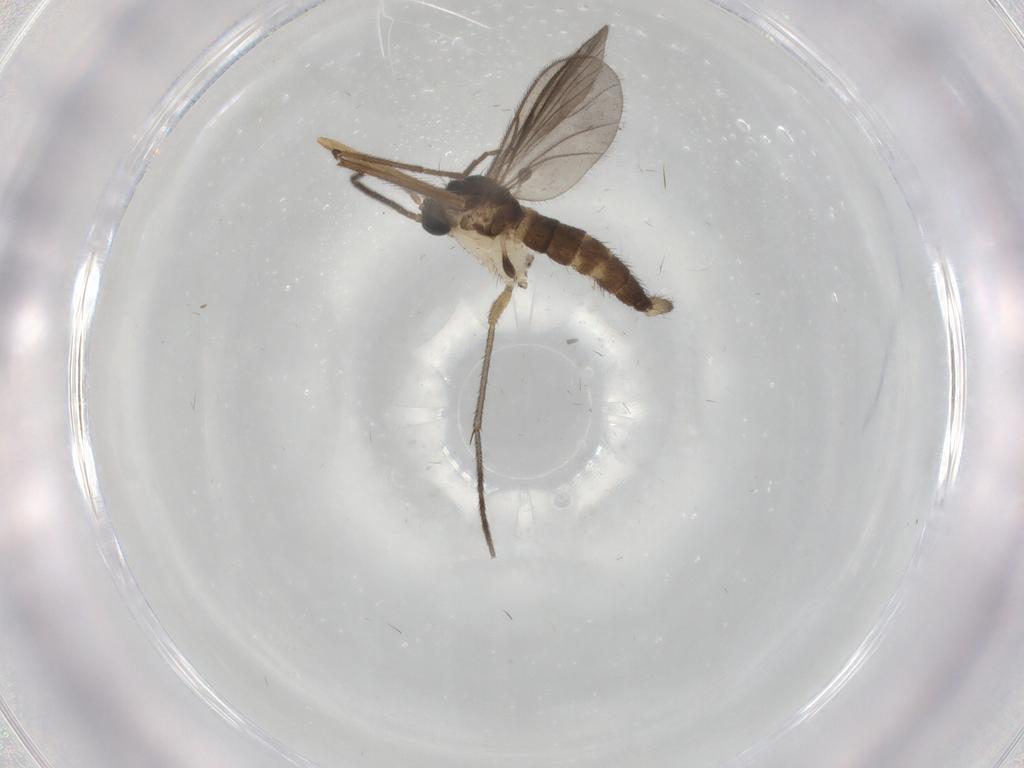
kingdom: Animalia
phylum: Arthropoda
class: Insecta
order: Diptera
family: Sciaridae
